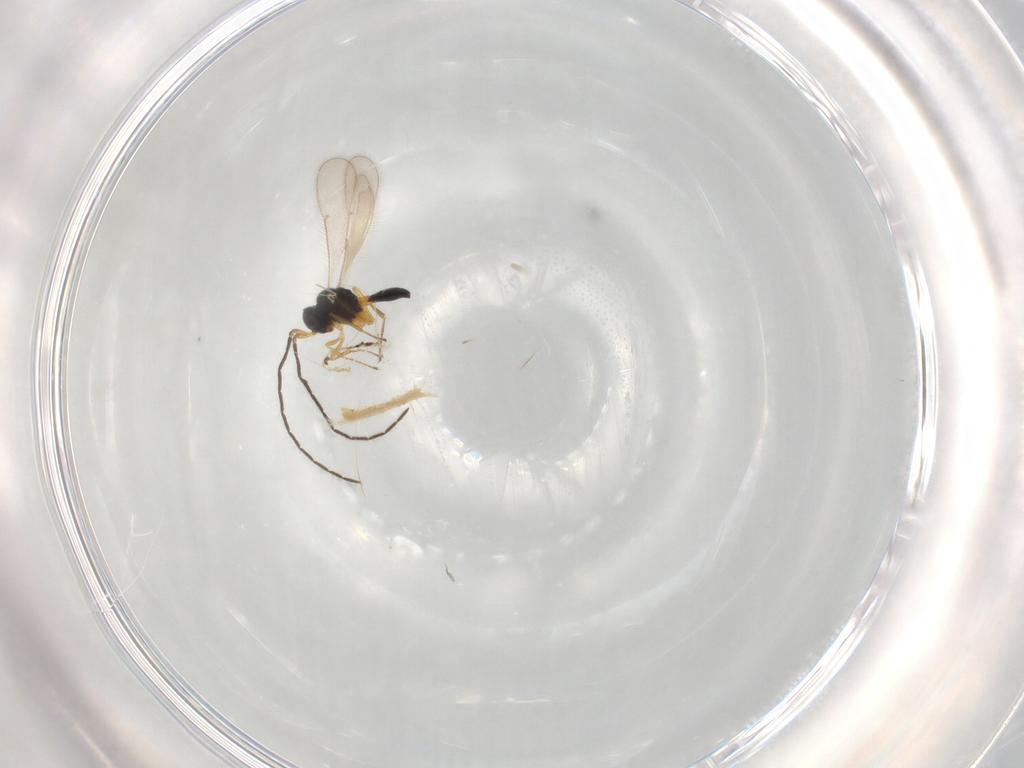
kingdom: Animalia
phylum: Arthropoda
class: Insecta
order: Hymenoptera
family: Scelionidae
